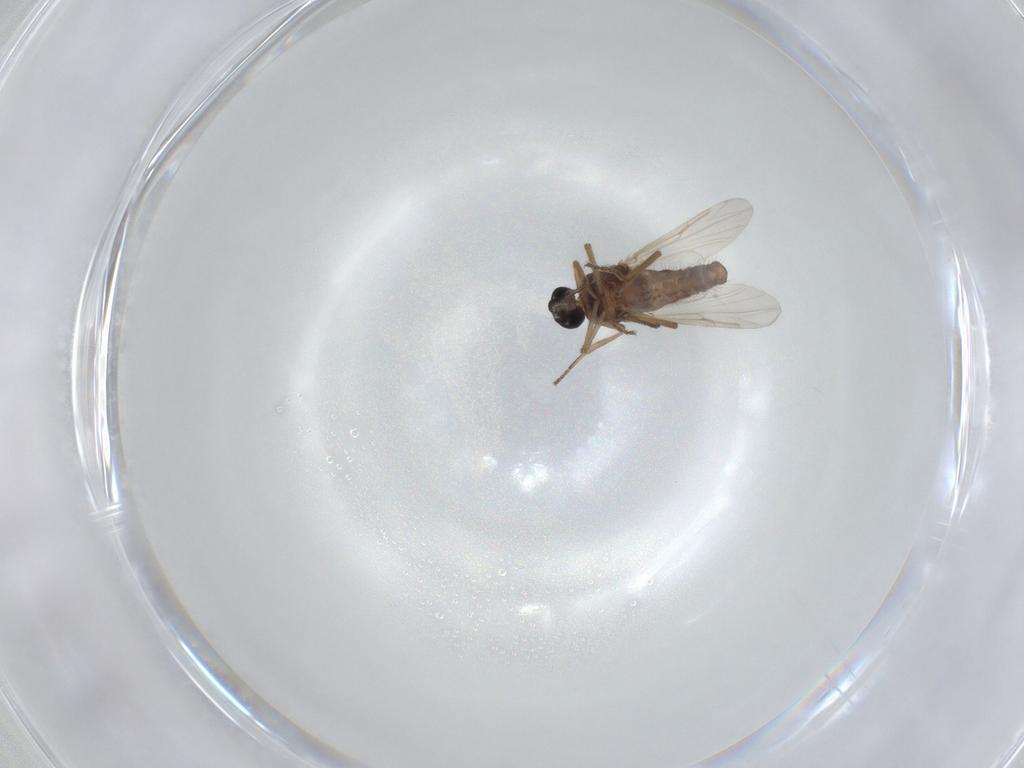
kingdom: Animalia
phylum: Arthropoda
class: Insecta
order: Diptera
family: Ceratopogonidae
